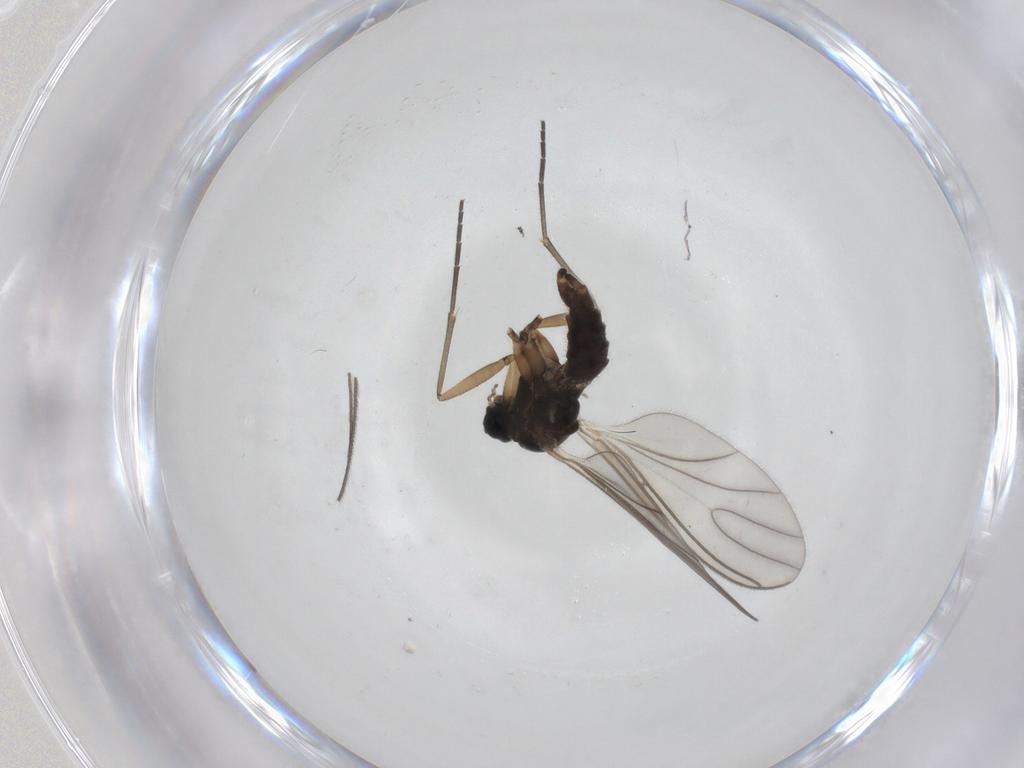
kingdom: Animalia
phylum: Arthropoda
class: Insecta
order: Diptera
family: Sciaridae
